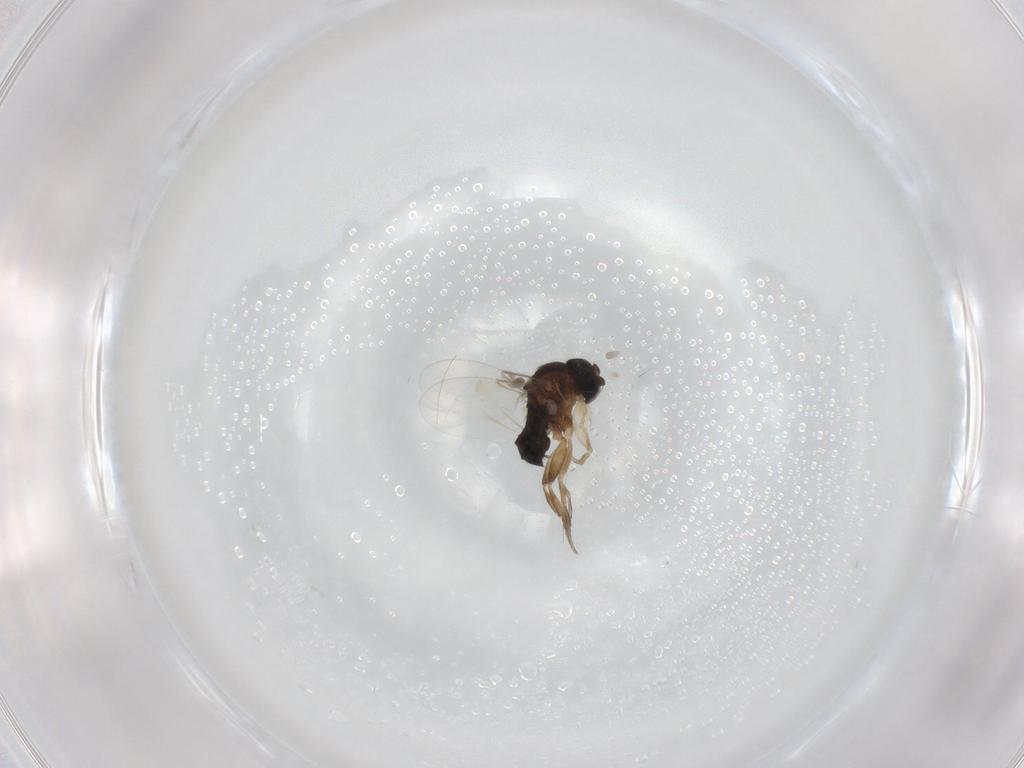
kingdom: Animalia
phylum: Arthropoda
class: Insecta
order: Diptera
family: Phoridae
